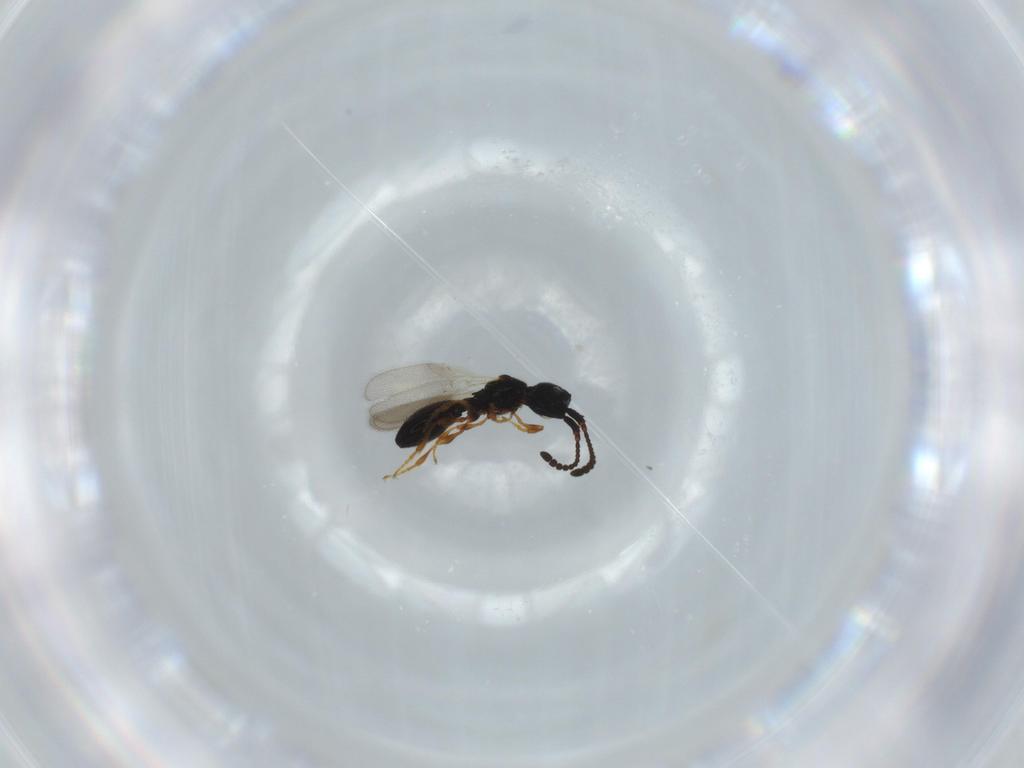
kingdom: Animalia
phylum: Arthropoda
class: Insecta
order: Hymenoptera
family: Diapriidae
